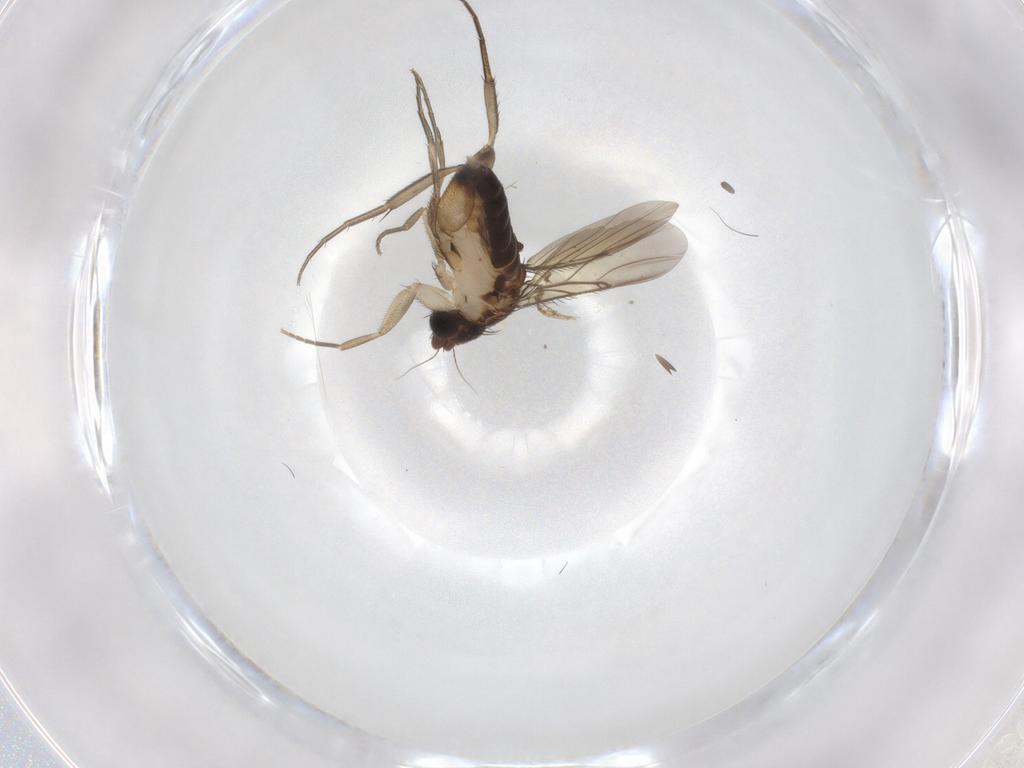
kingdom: Animalia
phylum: Arthropoda
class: Insecta
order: Diptera
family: Phoridae
